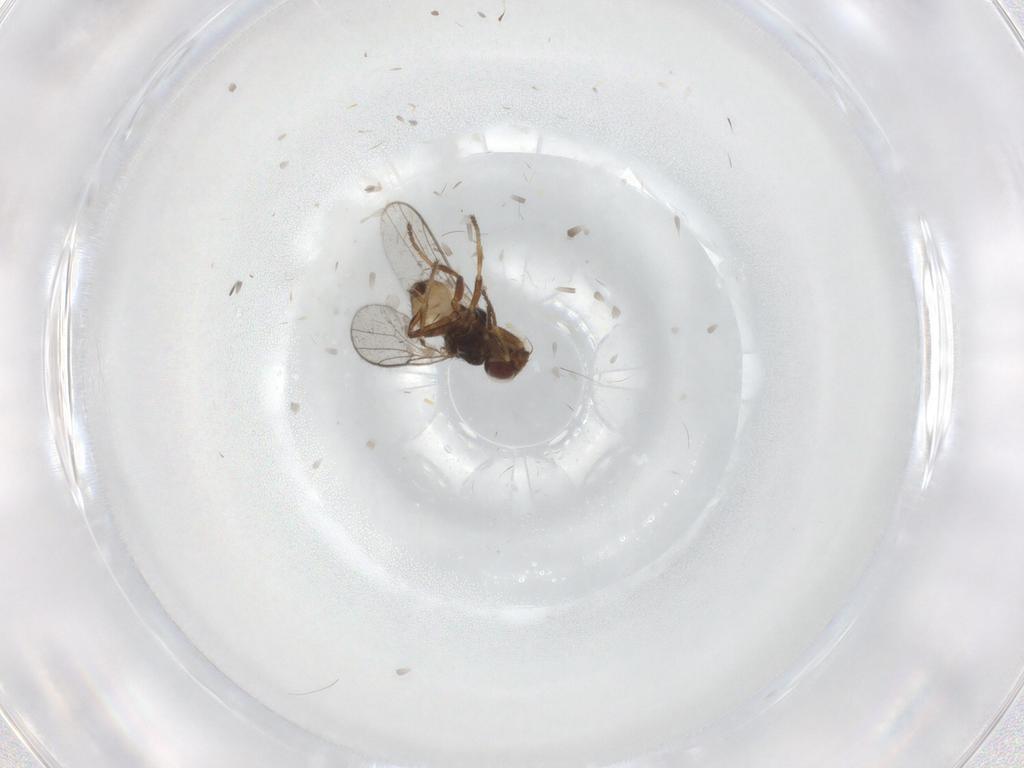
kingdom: Animalia
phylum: Arthropoda
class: Insecta
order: Diptera
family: Chloropidae
